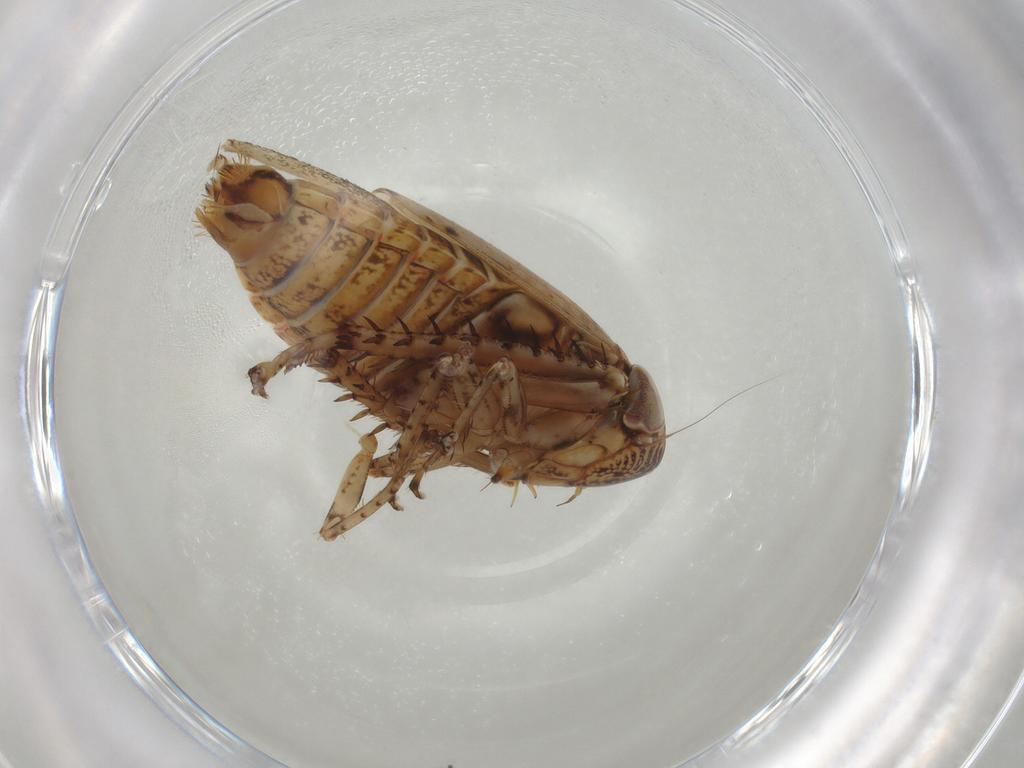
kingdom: Animalia
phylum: Arthropoda
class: Insecta
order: Hemiptera
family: Cicadellidae
